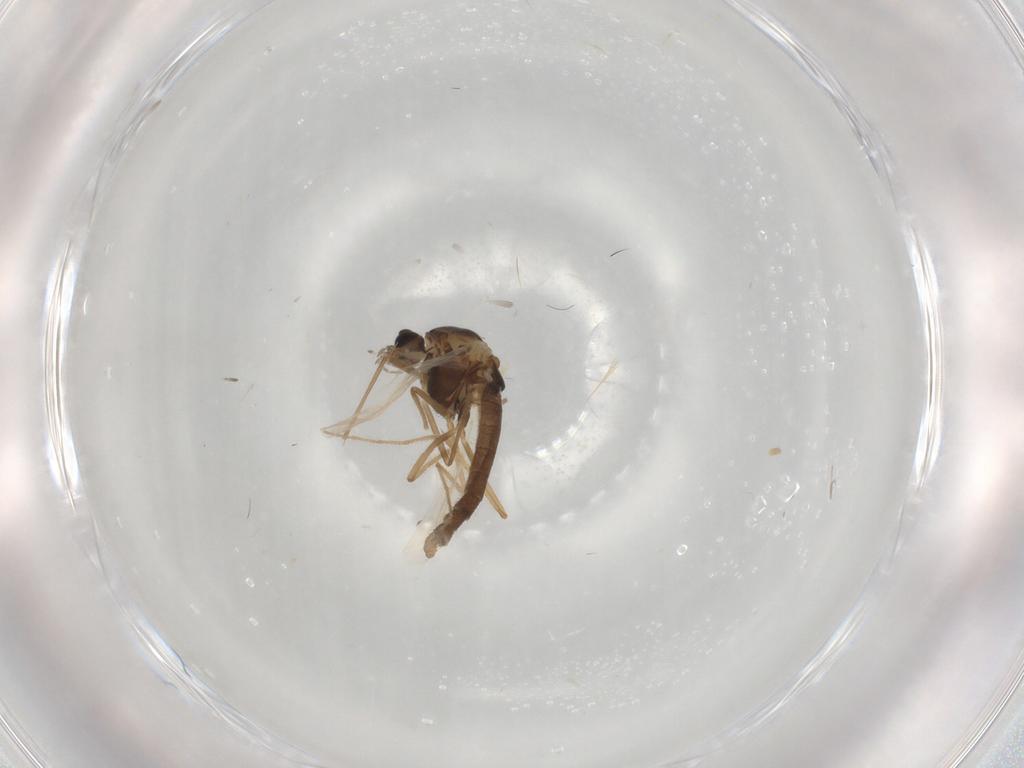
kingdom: Animalia
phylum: Arthropoda
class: Insecta
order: Diptera
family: Chironomidae
